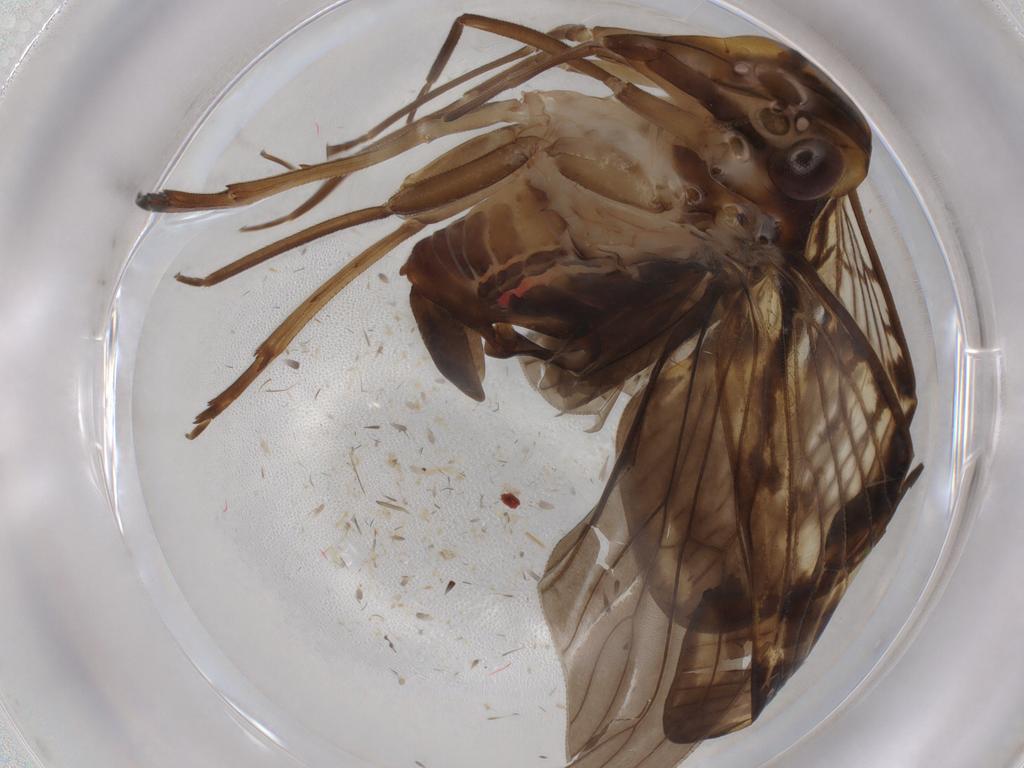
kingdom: Animalia
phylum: Arthropoda
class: Insecta
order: Hemiptera
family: Cixiidae
